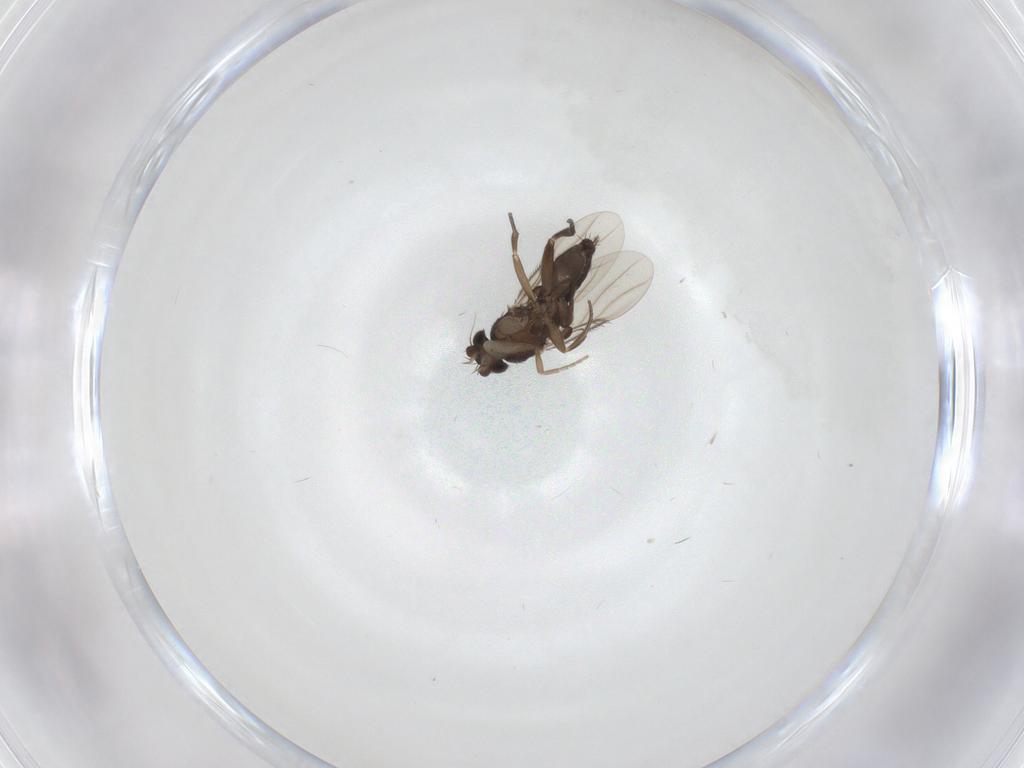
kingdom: Animalia
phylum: Arthropoda
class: Insecta
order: Diptera
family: Phoridae
